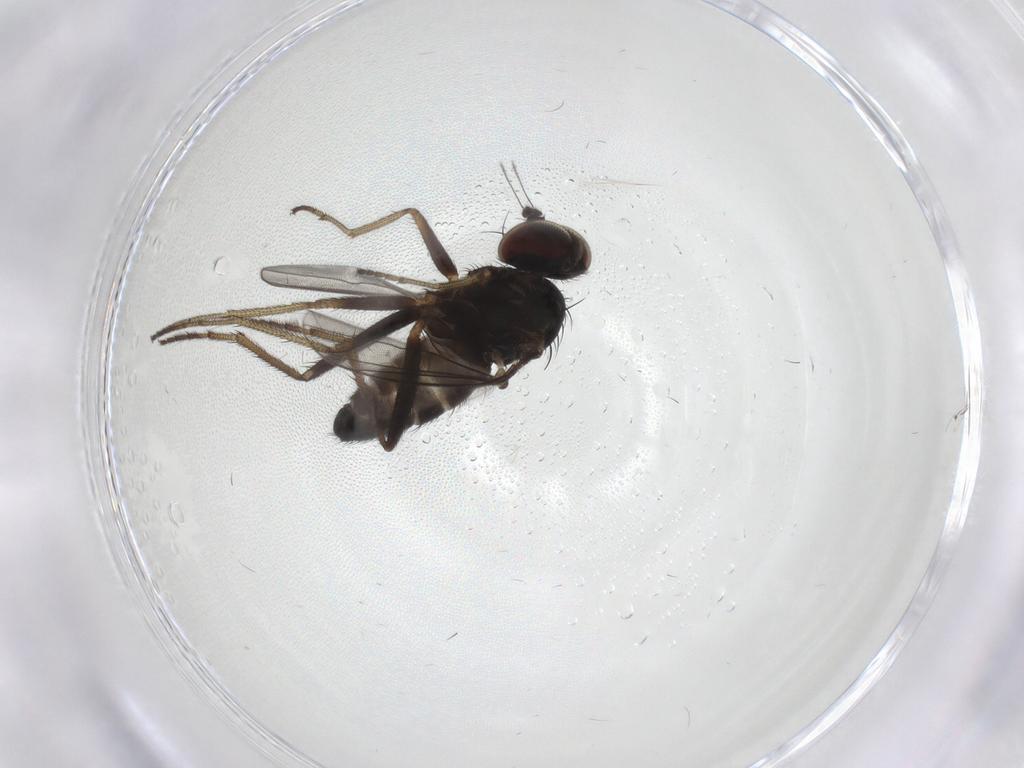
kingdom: Animalia
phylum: Arthropoda
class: Insecta
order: Diptera
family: Dolichopodidae
